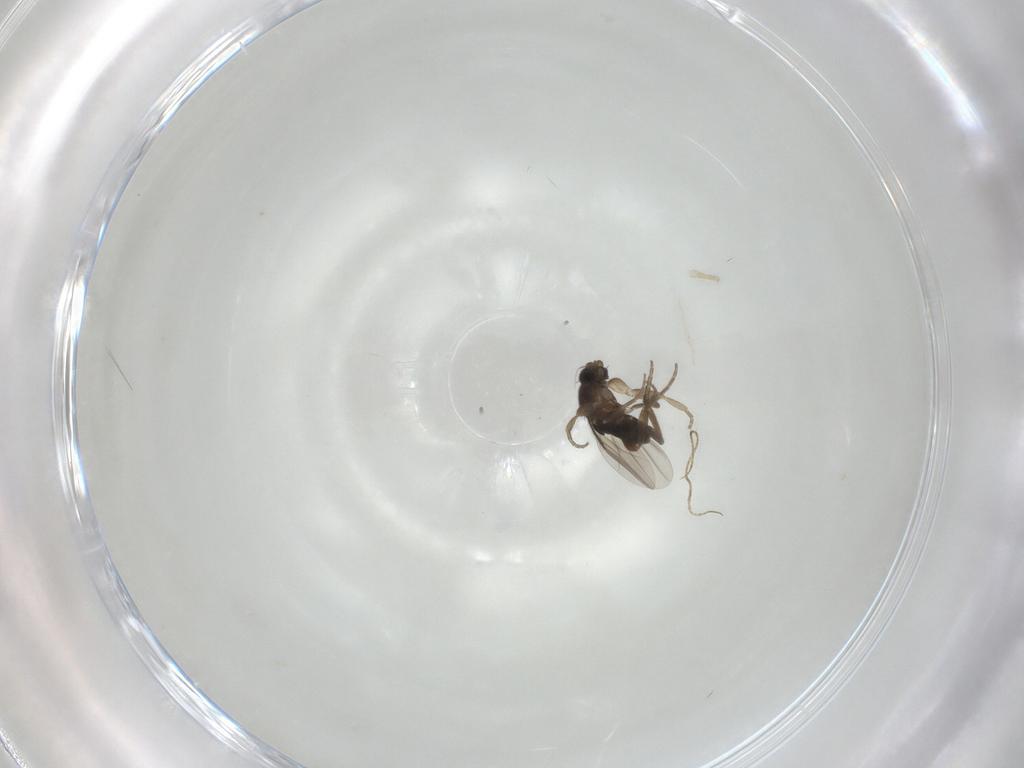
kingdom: Animalia
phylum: Arthropoda
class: Insecta
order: Diptera
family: Phoridae
